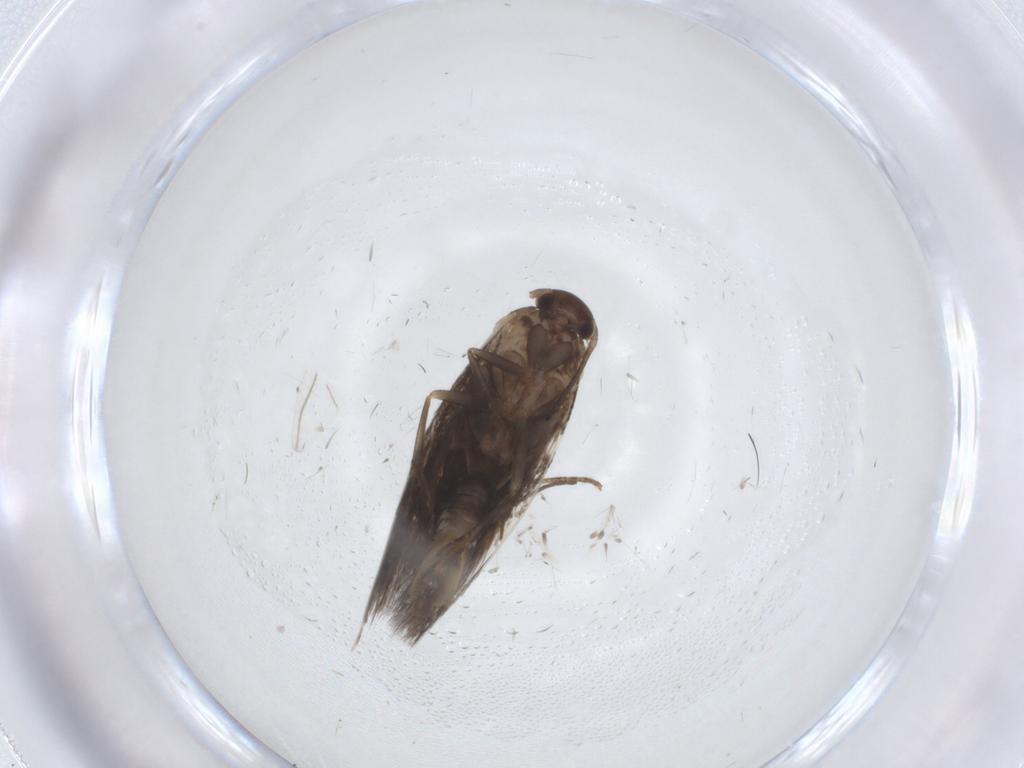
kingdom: Animalia
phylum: Arthropoda
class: Insecta
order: Lepidoptera
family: Elachistidae
